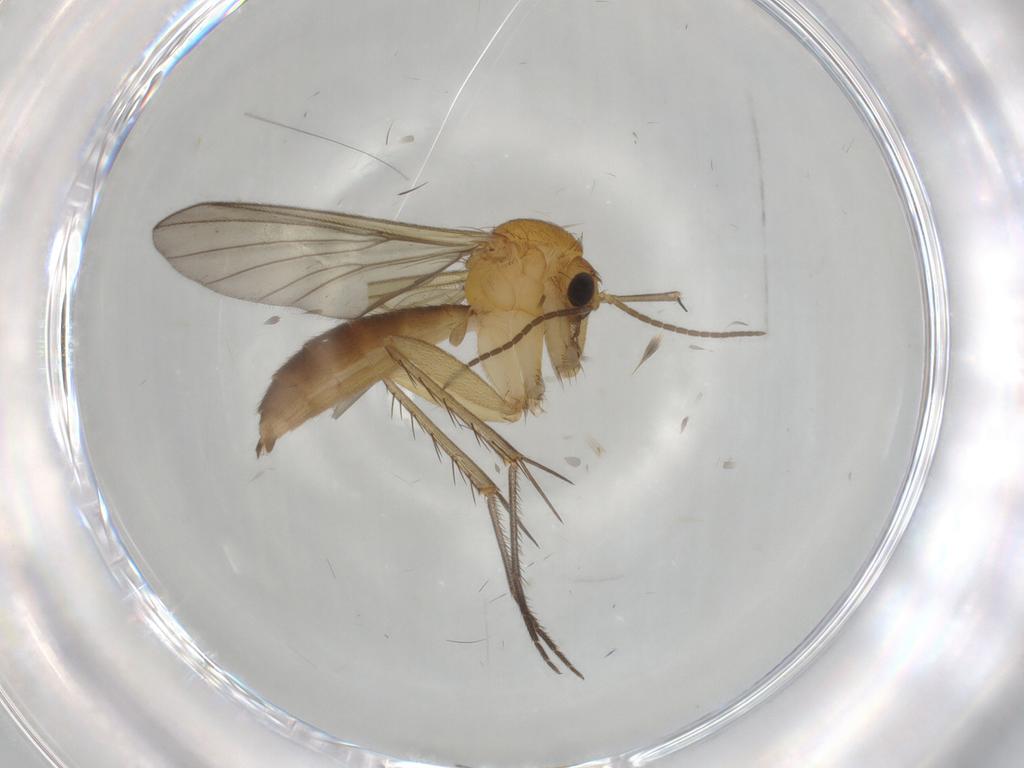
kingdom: Animalia
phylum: Arthropoda
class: Insecta
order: Diptera
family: Mycetophilidae
